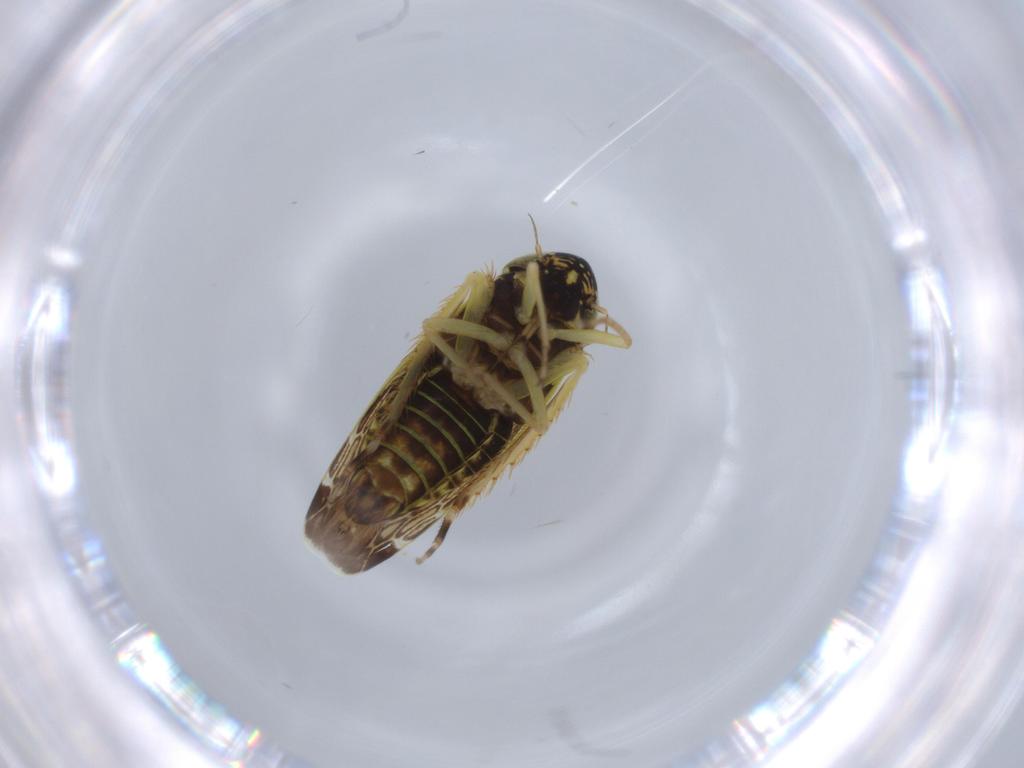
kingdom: Animalia
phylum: Arthropoda
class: Insecta
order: Hemiptera
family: Cicadellidae
